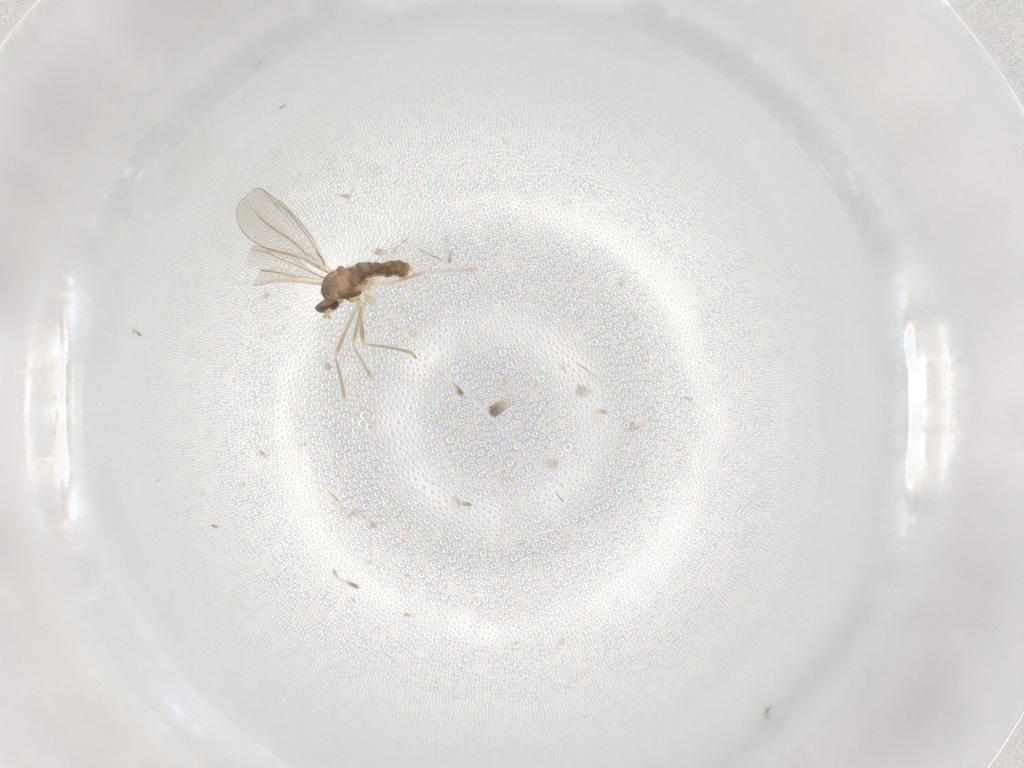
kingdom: Animalia
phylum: Arthropoda
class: Insecta
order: Diptera
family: Cecidomyiidae
